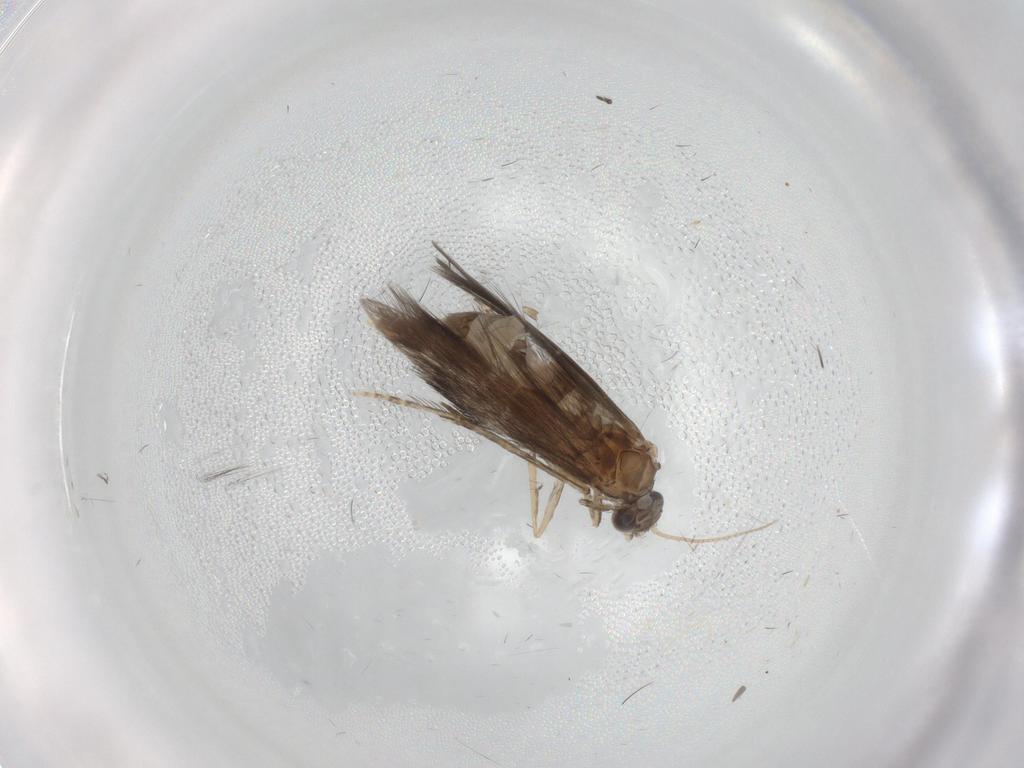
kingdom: Animalia
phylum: Arthropoda
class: Insecta
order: Trichoptera
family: Hydroptilidae
